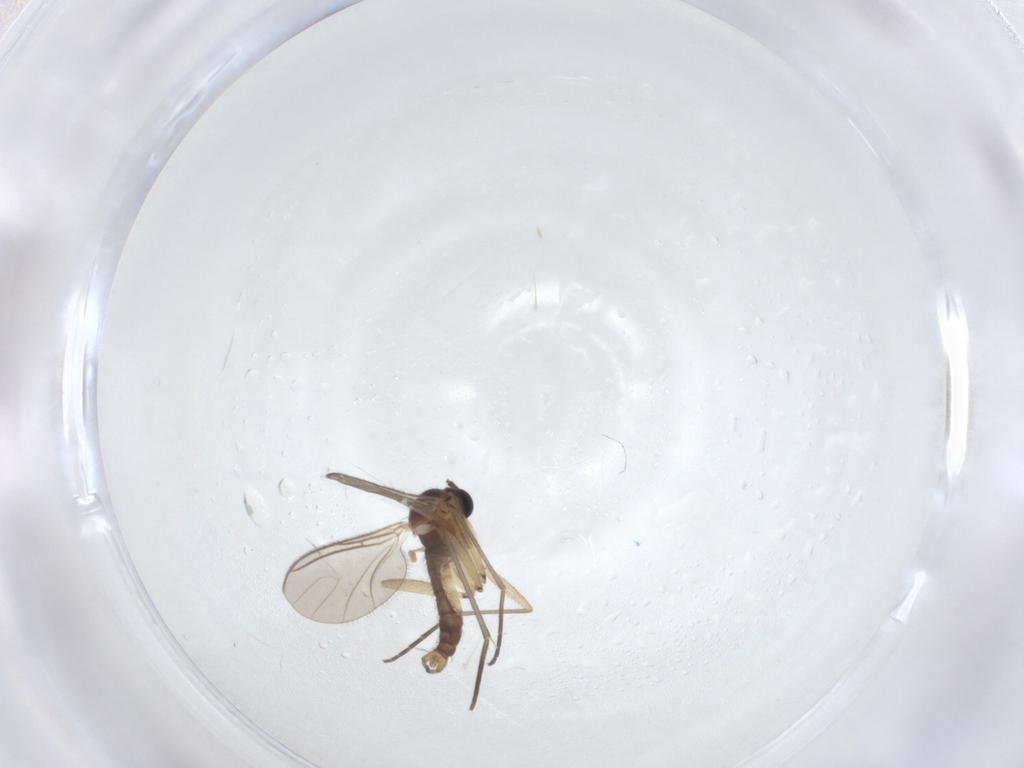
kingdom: Animalia
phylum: Arthropoda
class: Insecta
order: Diptera
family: Sciaridae
